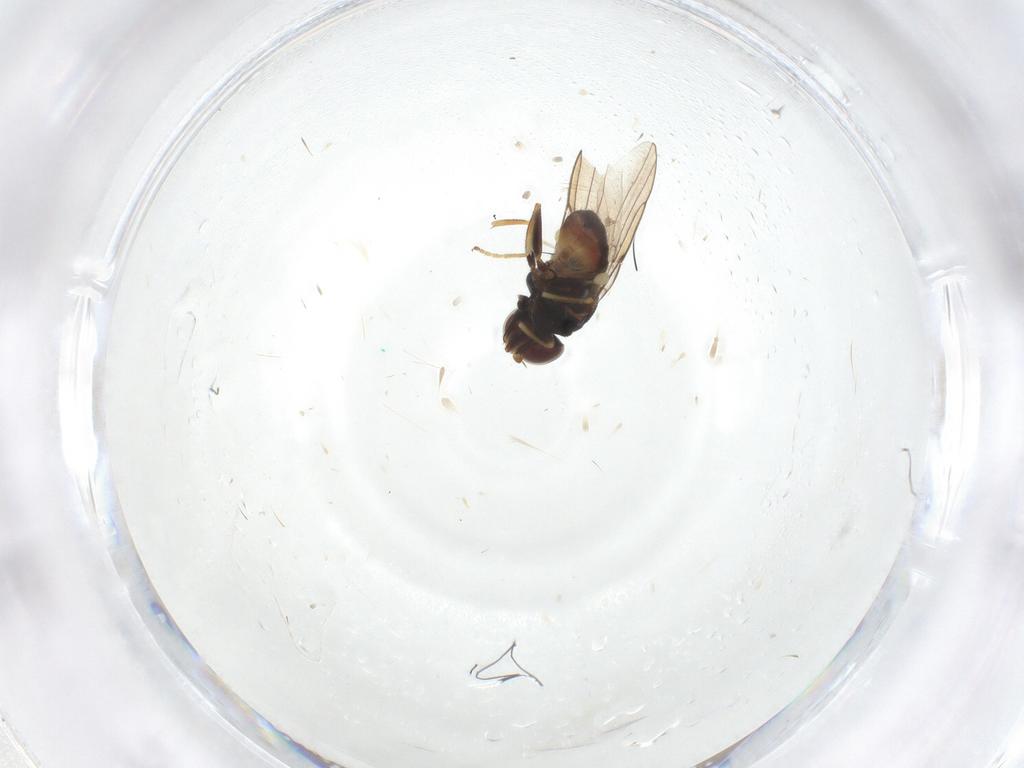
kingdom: Animalia
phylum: Arthropoda
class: Insecta
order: Diptera
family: Chloropidae
